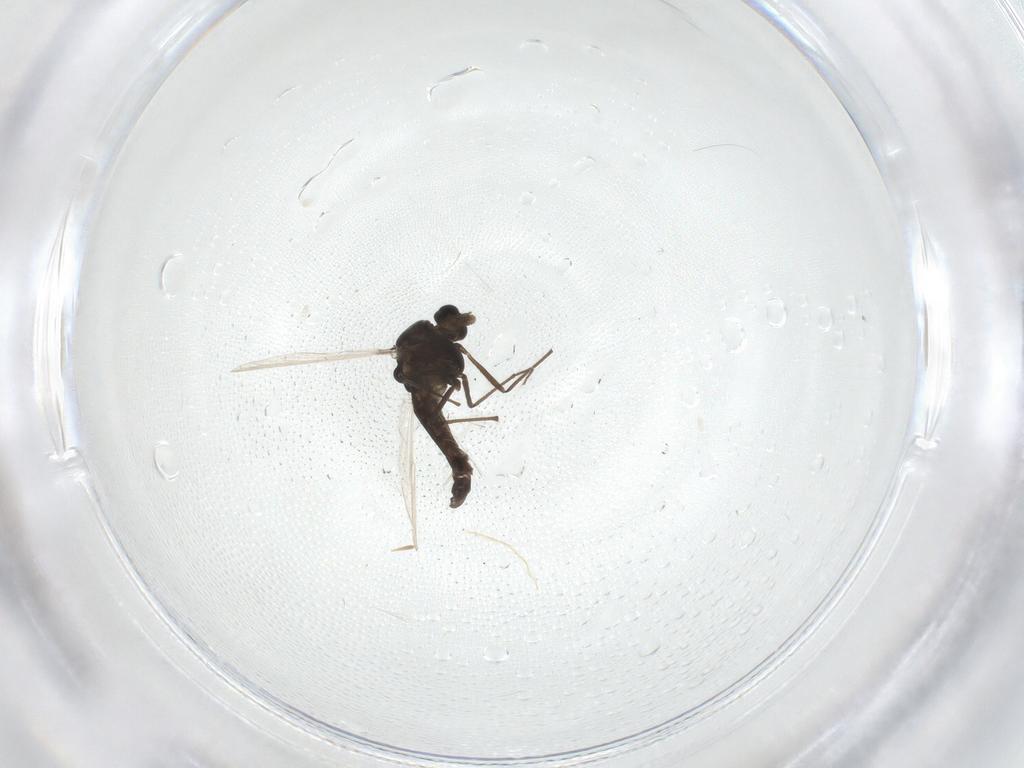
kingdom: Animalia
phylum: Arthropoda
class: Insecta
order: Diptera
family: Chironomidae
